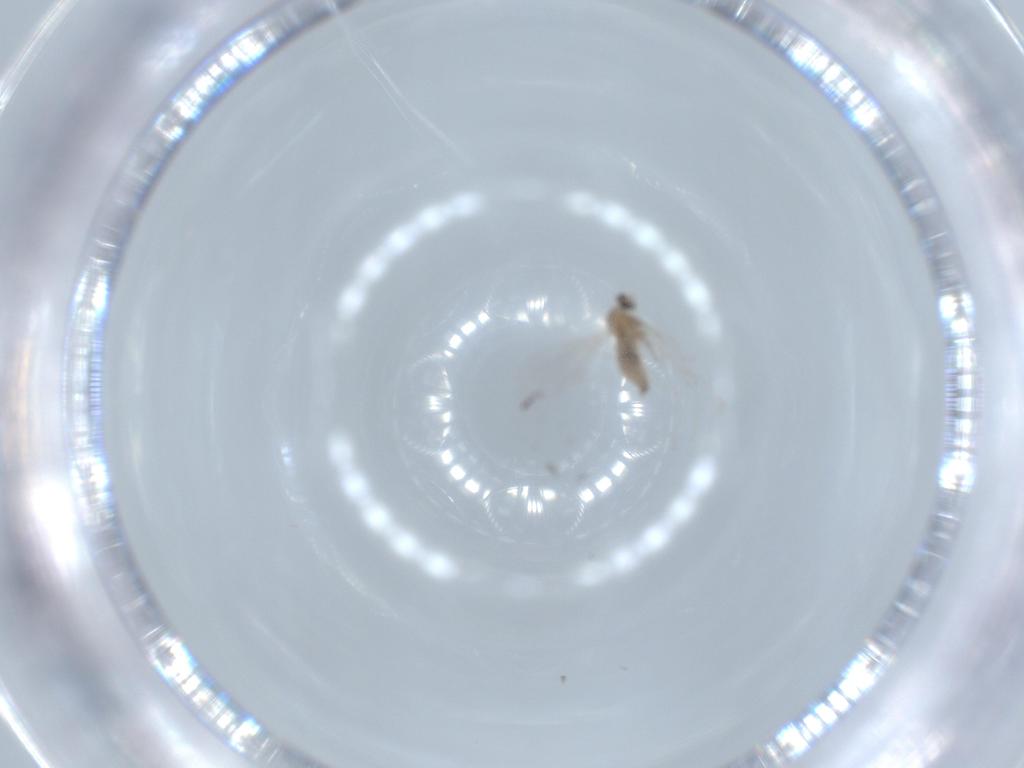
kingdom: Animalia
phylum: Arthropoda
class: Insecta
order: Diptera
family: Cecidomyiidae
